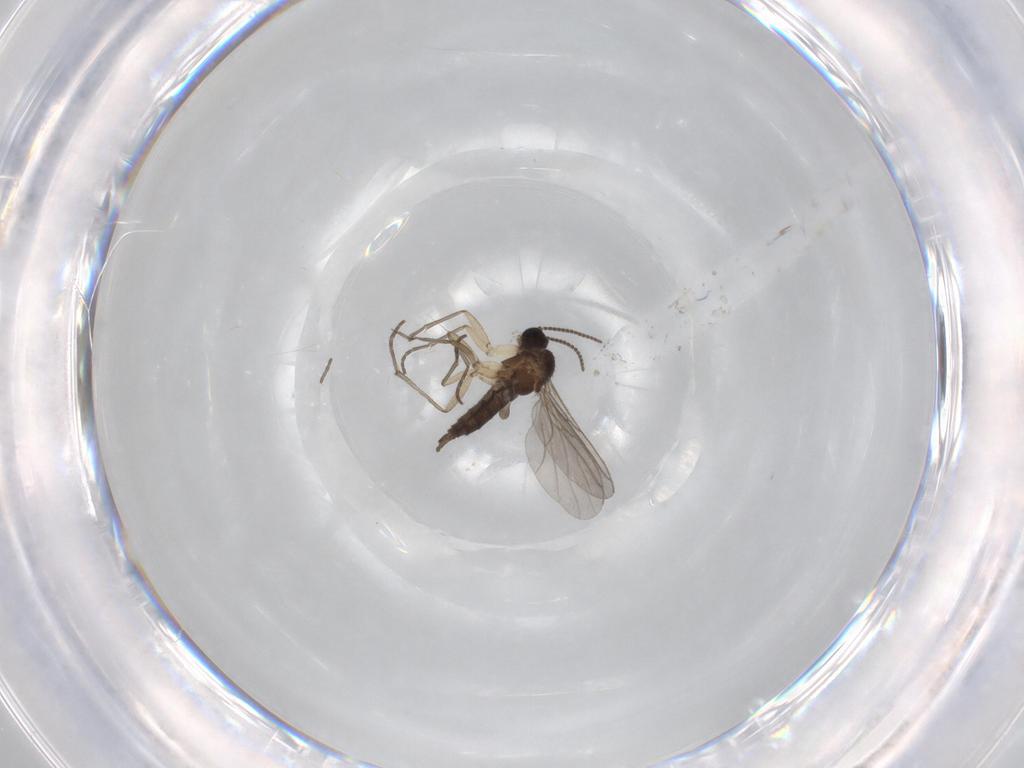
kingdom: Animalia
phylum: Arthropoda
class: Insecta
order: Diptera
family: Sciaridae
